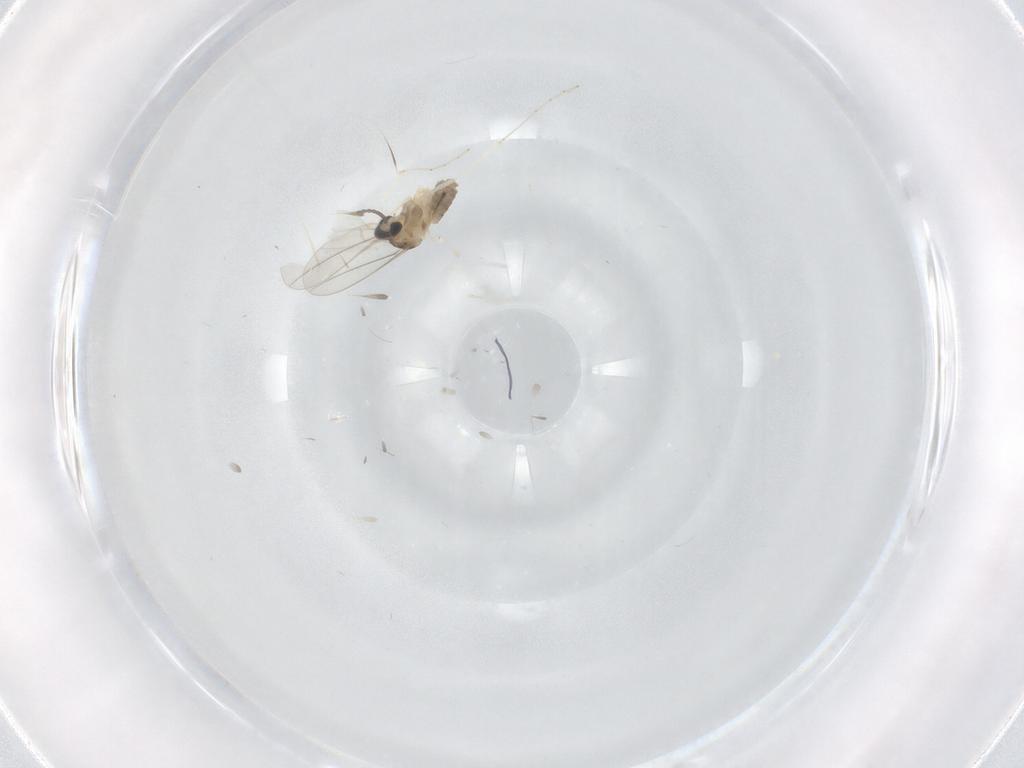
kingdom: Animalia
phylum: Arthropoda
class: Insecta
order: Diptera
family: Cecidomyiidae
